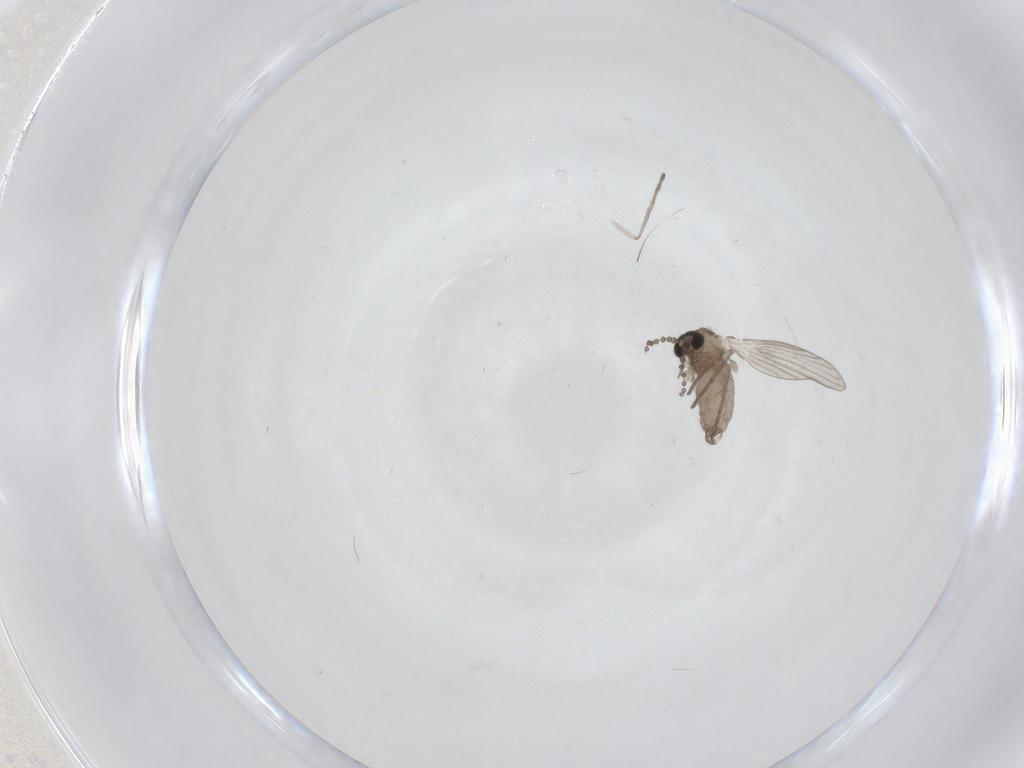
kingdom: Animalia
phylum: Arthropoda
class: Insecta
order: Diptera
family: Psychodidae
